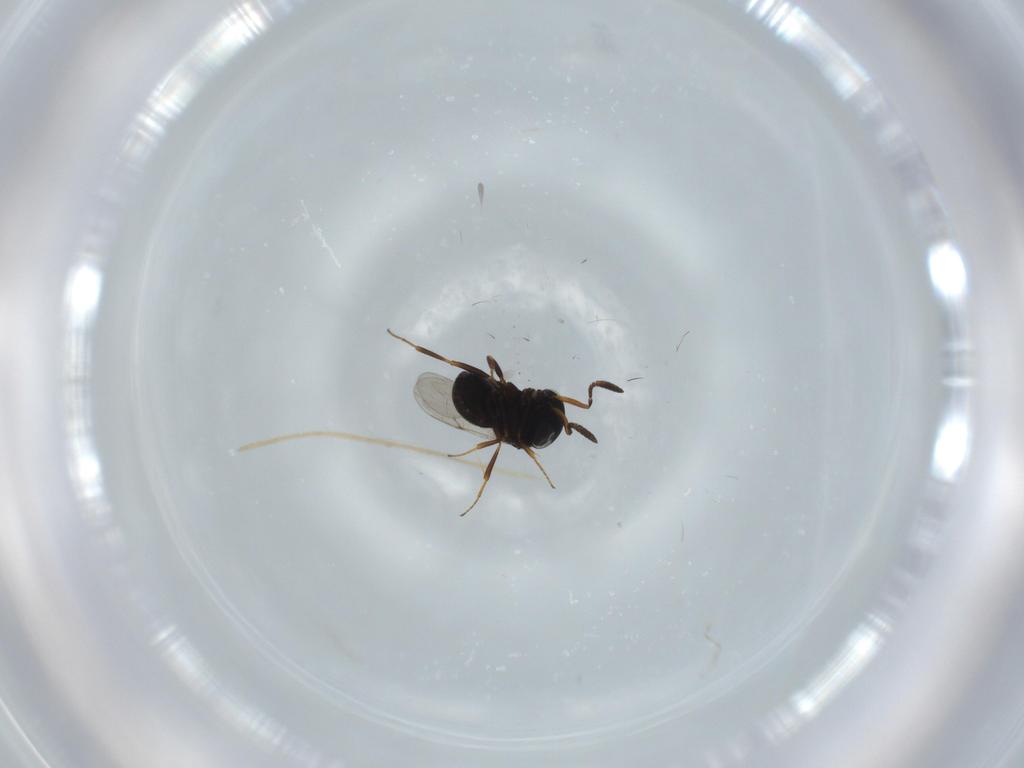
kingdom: Animalia
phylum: Arthropoda
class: Insecta
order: Hymenoptera
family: Scelionidae
